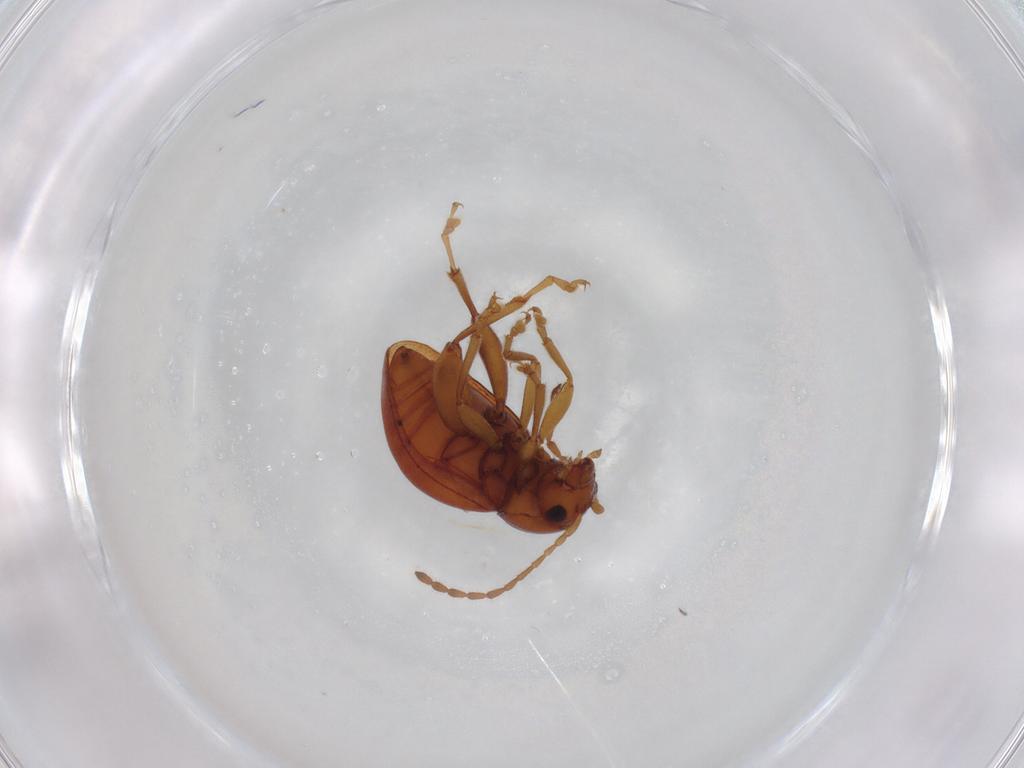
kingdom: Animalia
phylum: Arthropoda
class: Insecta
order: Coleoptera
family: Chrysomelidae
